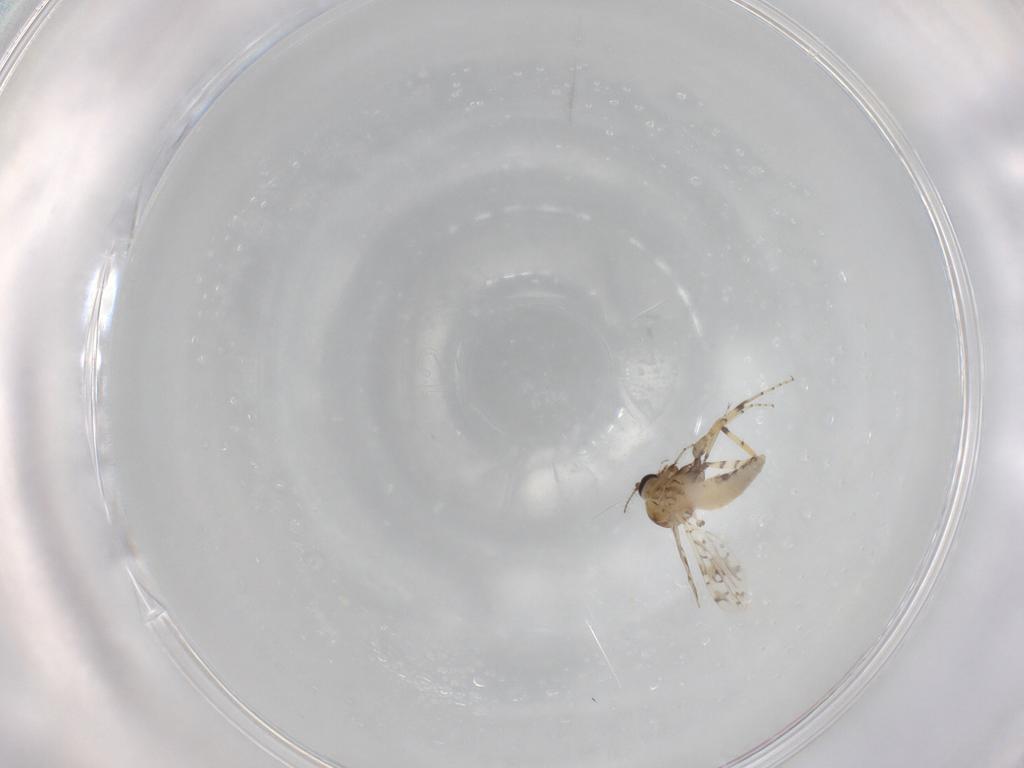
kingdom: Animalia
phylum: Arthropoda
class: Insecta
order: Diptera
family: Ceratopogonidae
